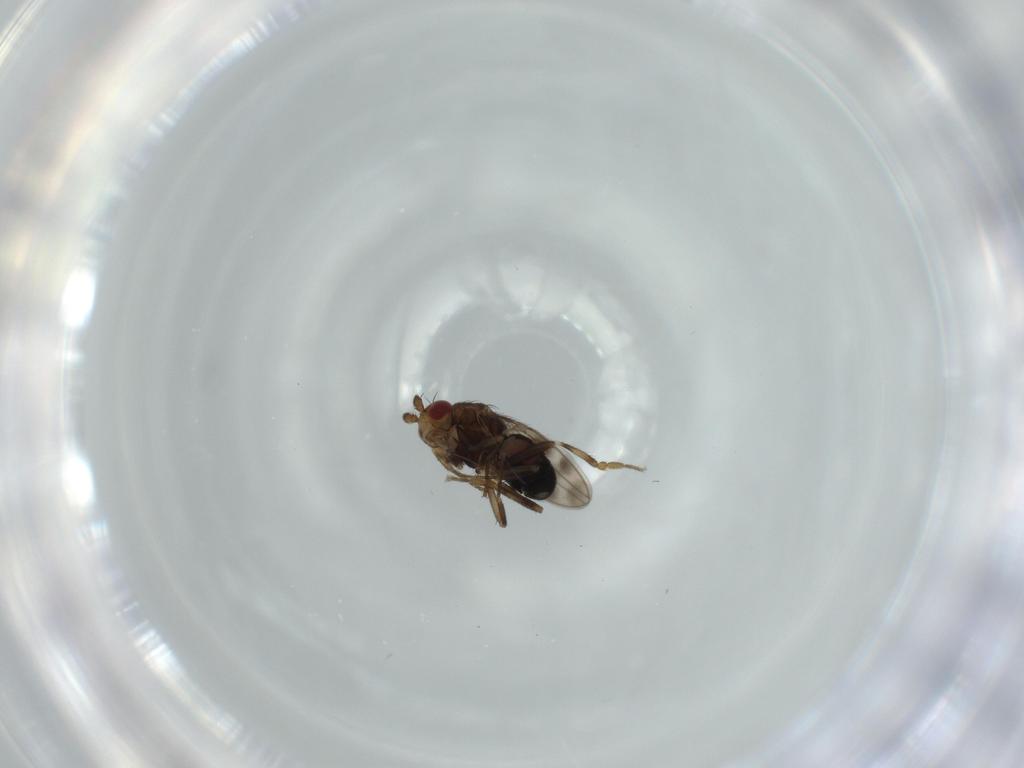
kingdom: Animalia
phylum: Arthropoda
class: Insecta
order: Diptera
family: Sphaeroceridae
